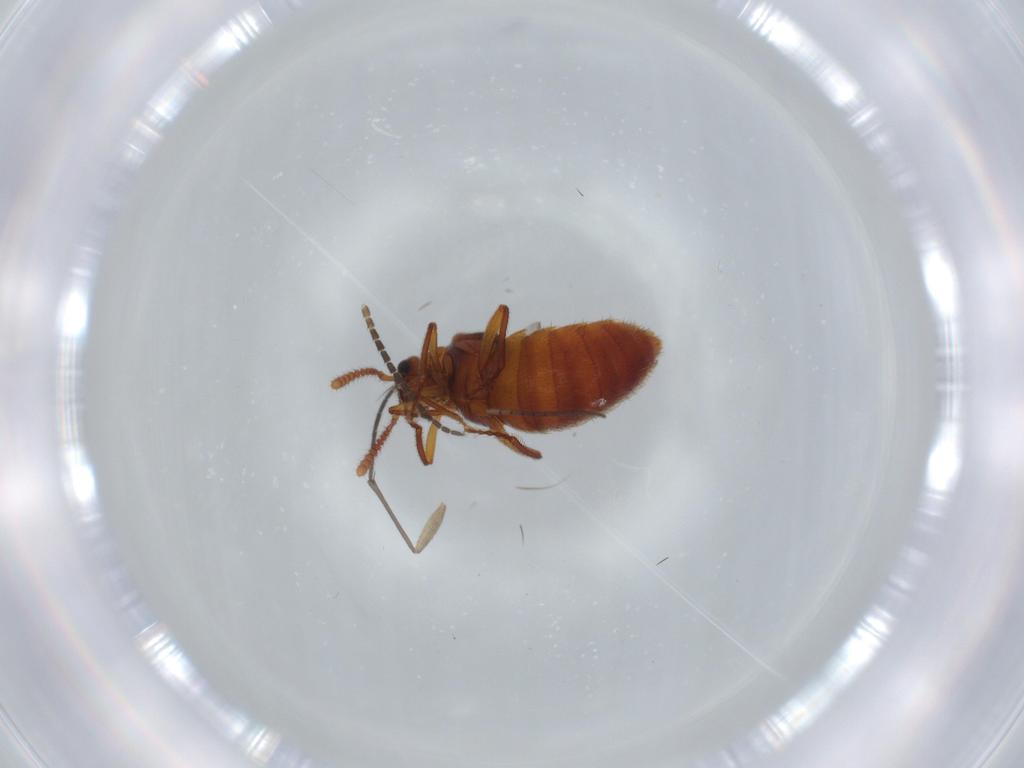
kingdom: Animalia
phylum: Arthropoda
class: Insecta
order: Coleoptera
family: Staphylinidae
